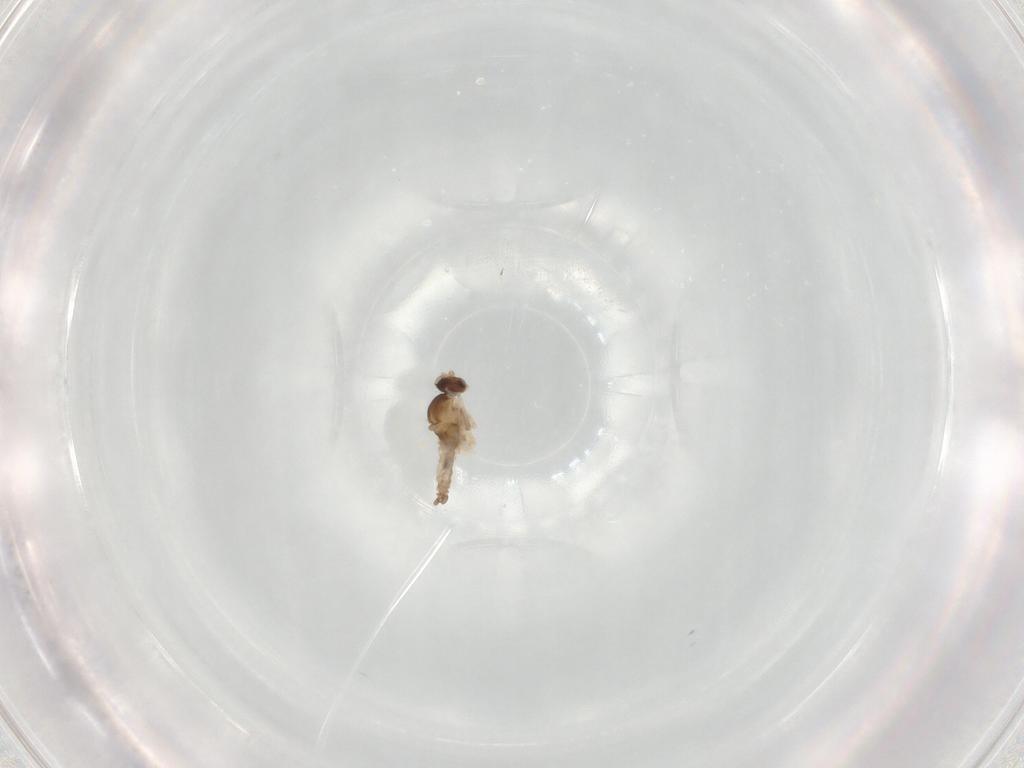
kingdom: Animalia
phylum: Arthropoda
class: Insecta
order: Diptera
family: Cecidomyiidae
